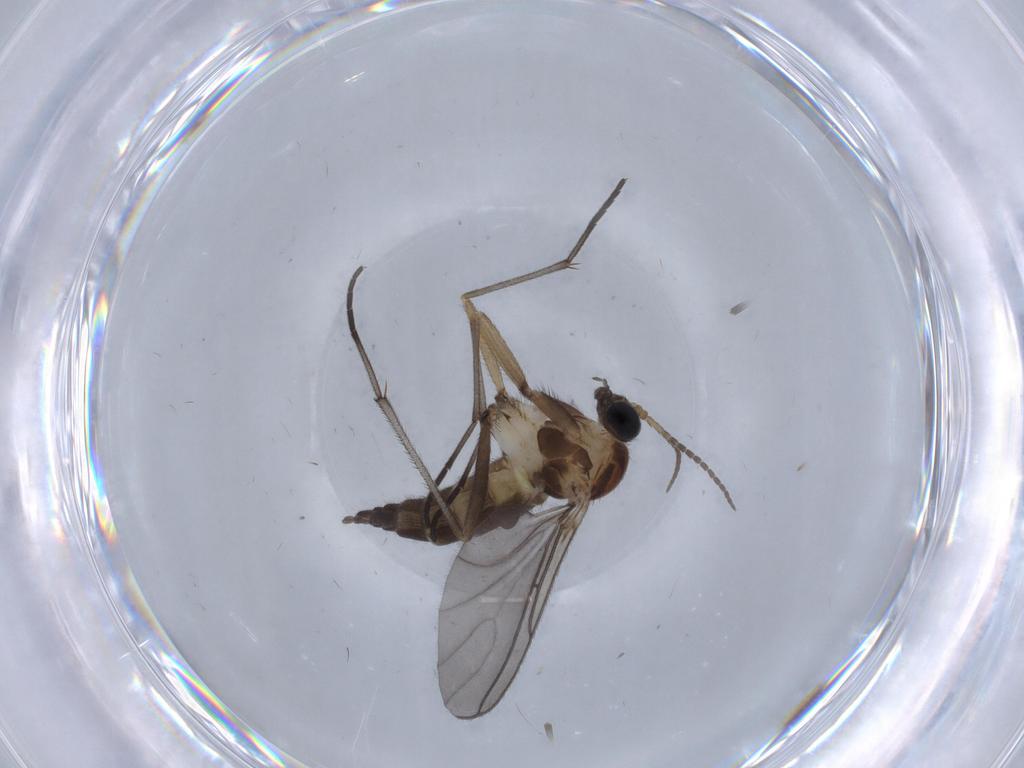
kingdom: Animalia
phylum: Arthropoda
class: Insecta
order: Diptera
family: Sciaridae
